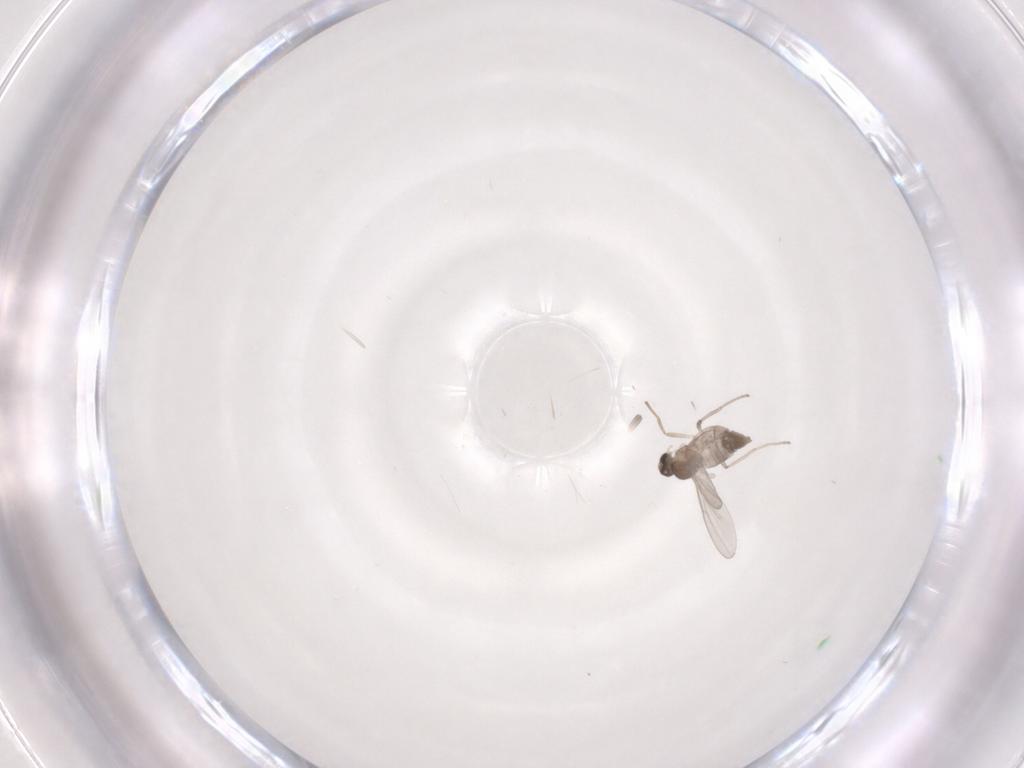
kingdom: Animalia
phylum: Arthropoda
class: Insecta
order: Diptera
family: Cecidomyiidae
